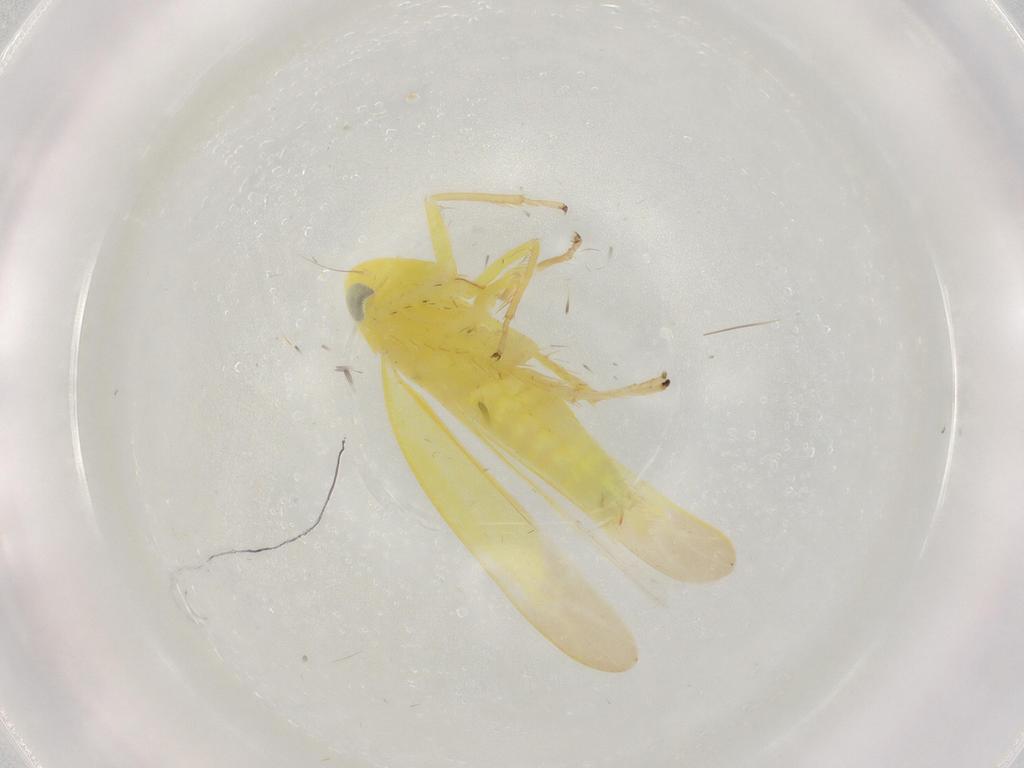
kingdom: Animalia
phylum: Arthropoda
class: Insecta
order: Hemiptera
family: Cicadellidae
